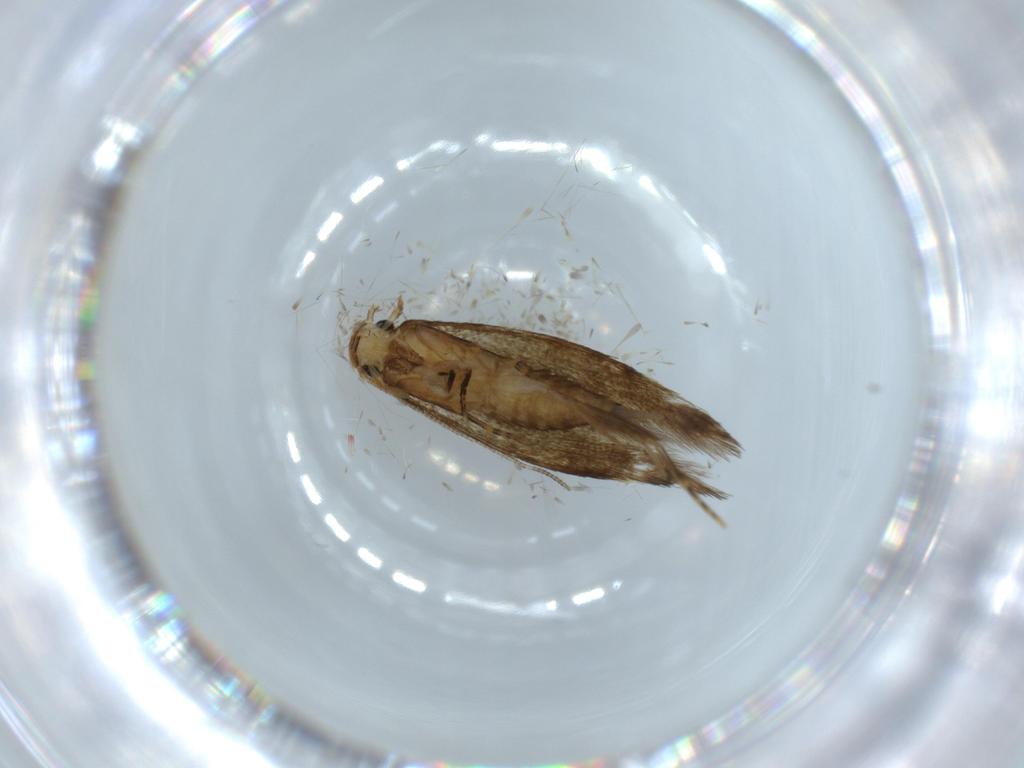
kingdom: Animalia
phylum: Arthropoda
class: Insecta
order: Lepidoptera
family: Tineidae
